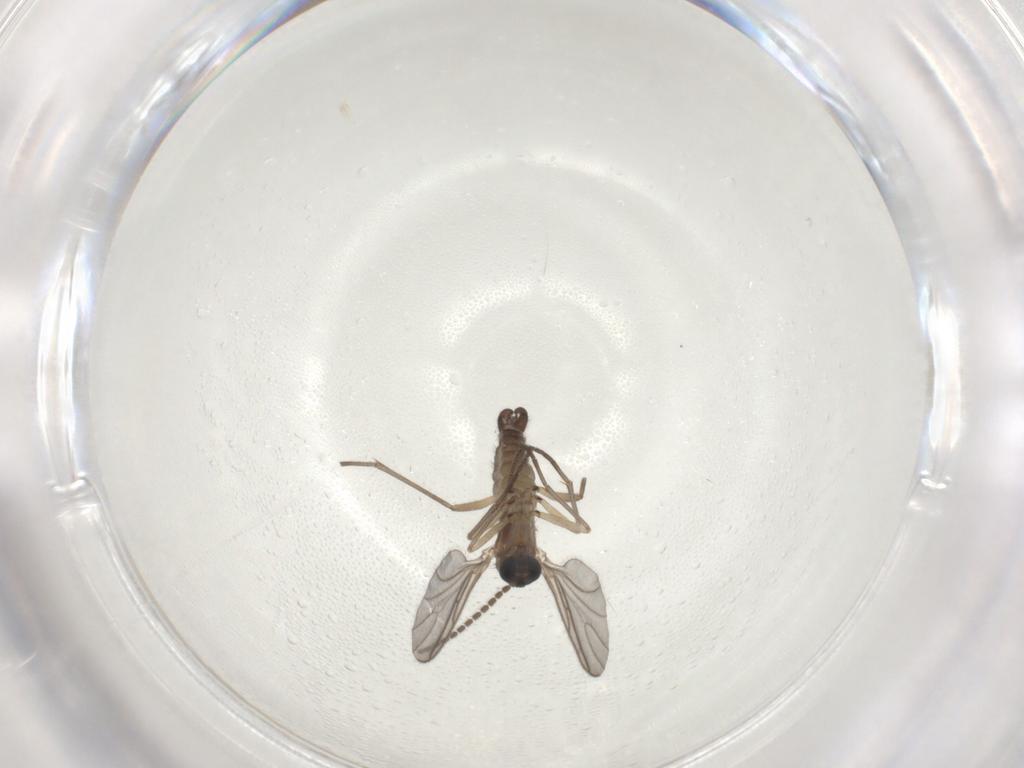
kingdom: Animalia
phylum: Arthropoda
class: Insecta
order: Diptera
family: Sciaridae
